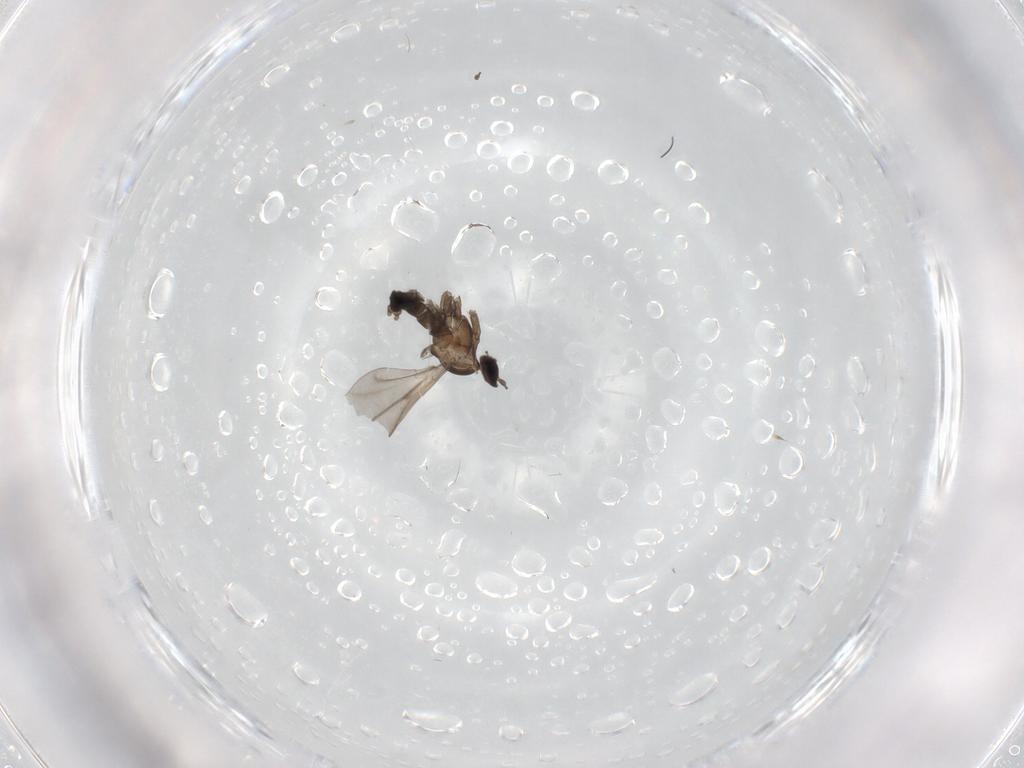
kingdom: Animalia
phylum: Arthropoda
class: Insecta
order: Diptera
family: Cecidomyiidae
